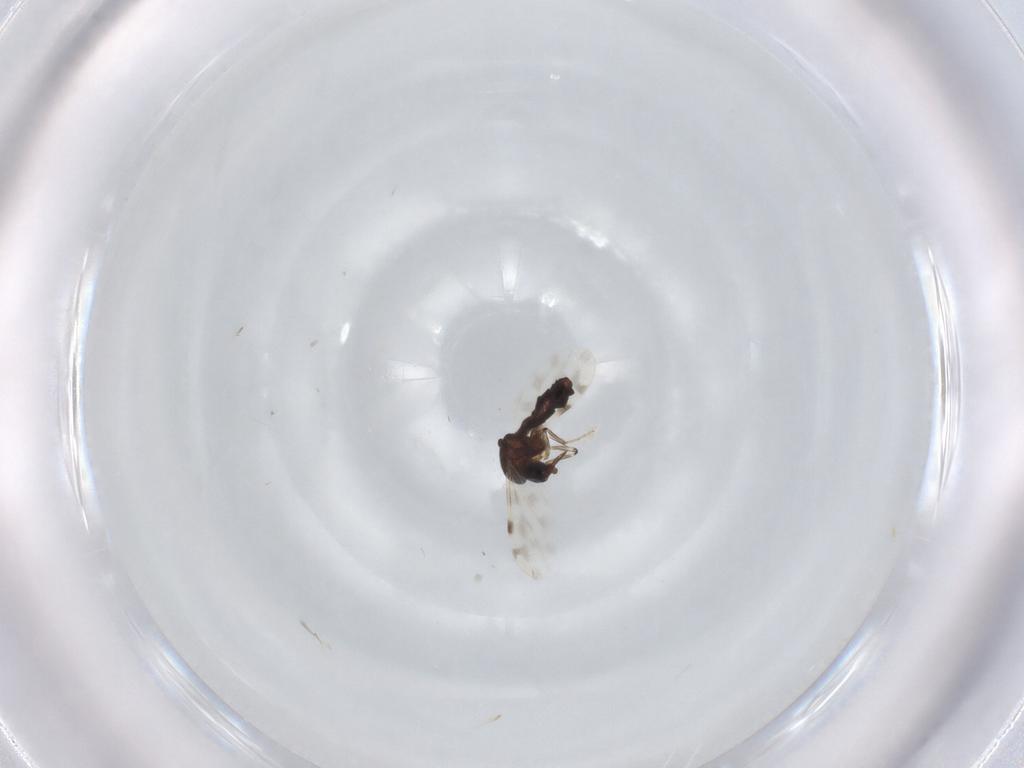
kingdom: Animalia
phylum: Arthropoda
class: Insecta
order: Diptera
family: Ceratopogonidae
